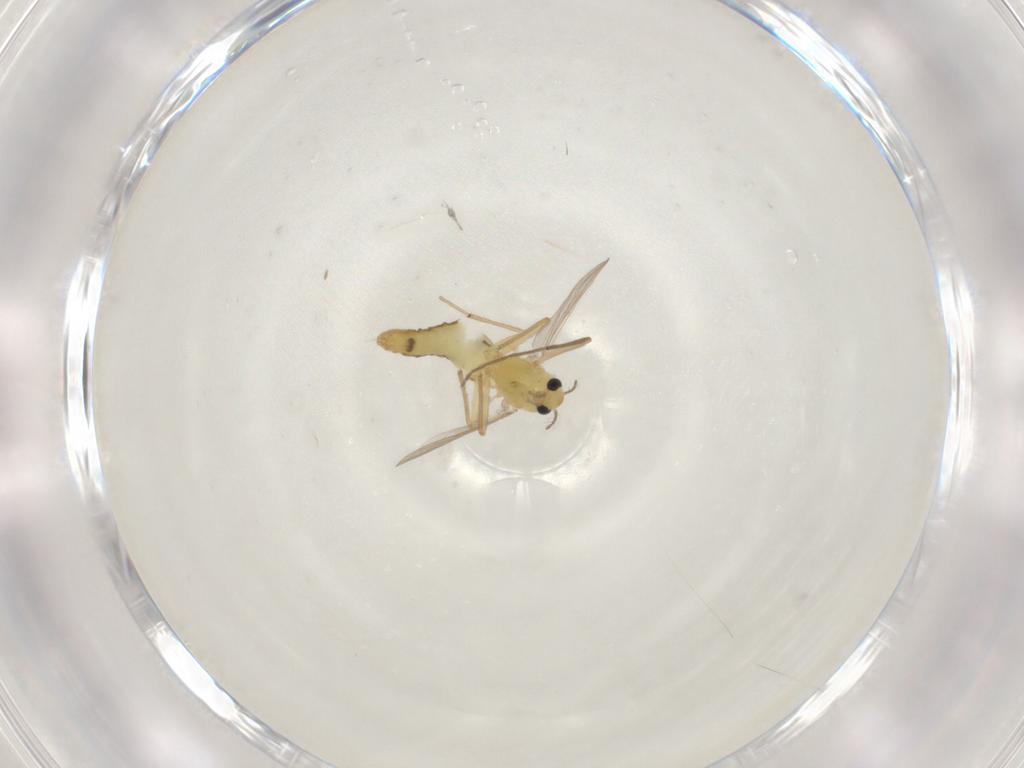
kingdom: Animalia
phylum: Arthropoda
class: Insecta
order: Diptera
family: Chironomidae
